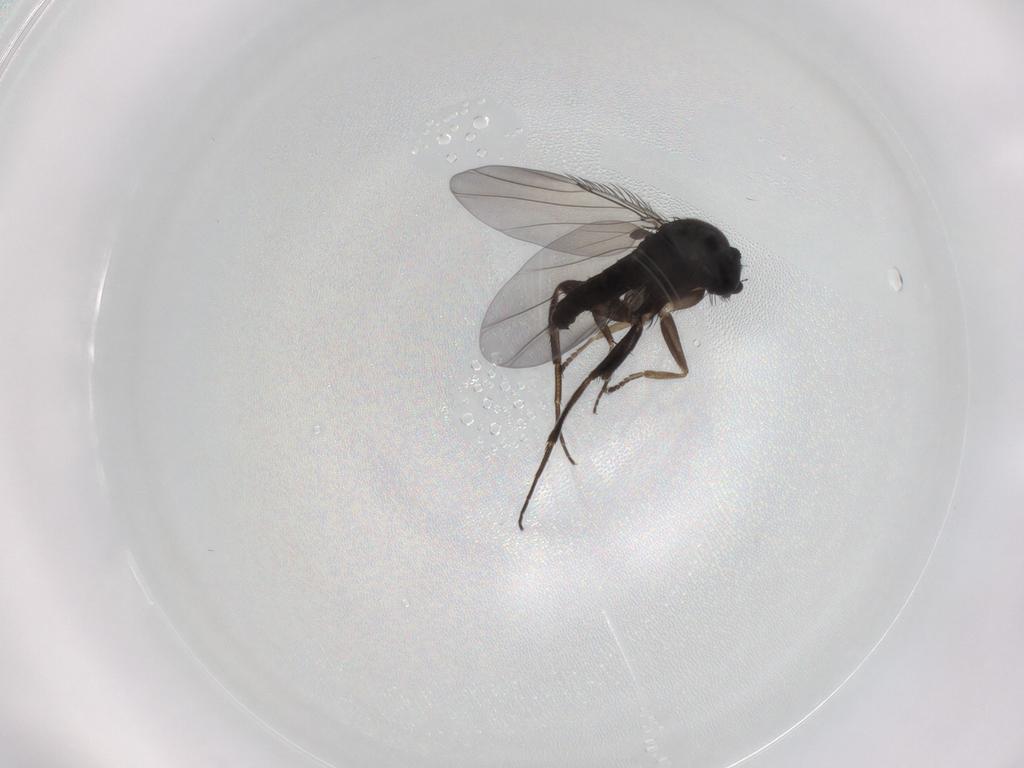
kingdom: Animalia
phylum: Arthropoda
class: Insecta
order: Diptera
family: Phoridae
